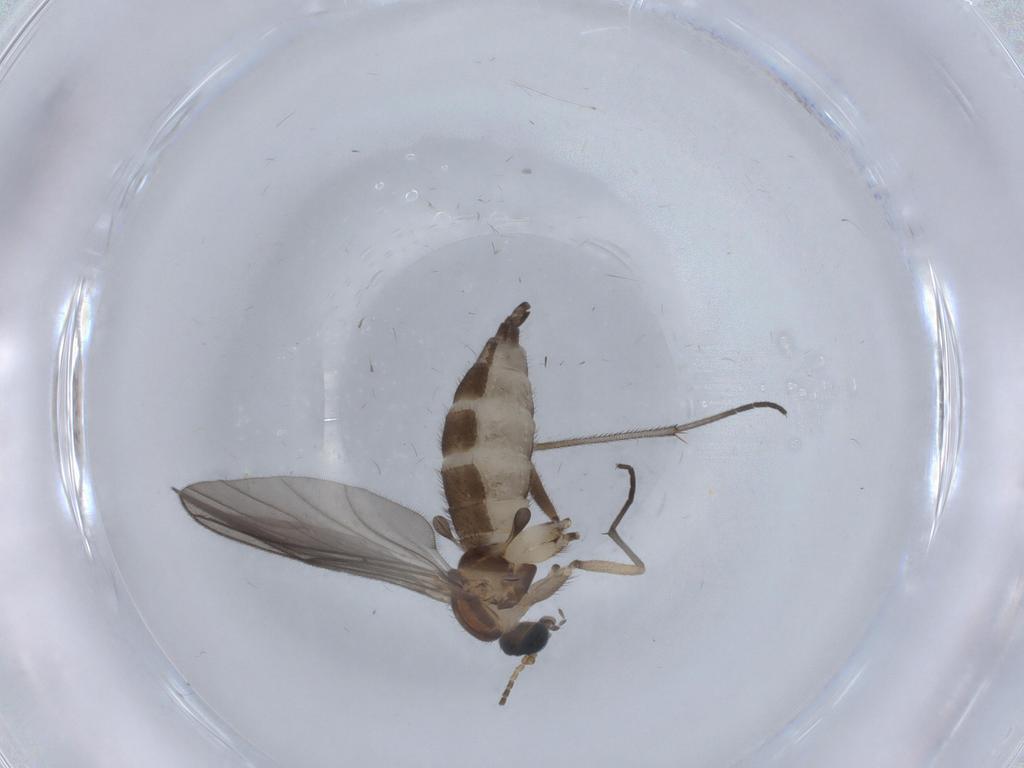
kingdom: Animalia
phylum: Arthropoda
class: Insecta
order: Diptera
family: Sciaridae
